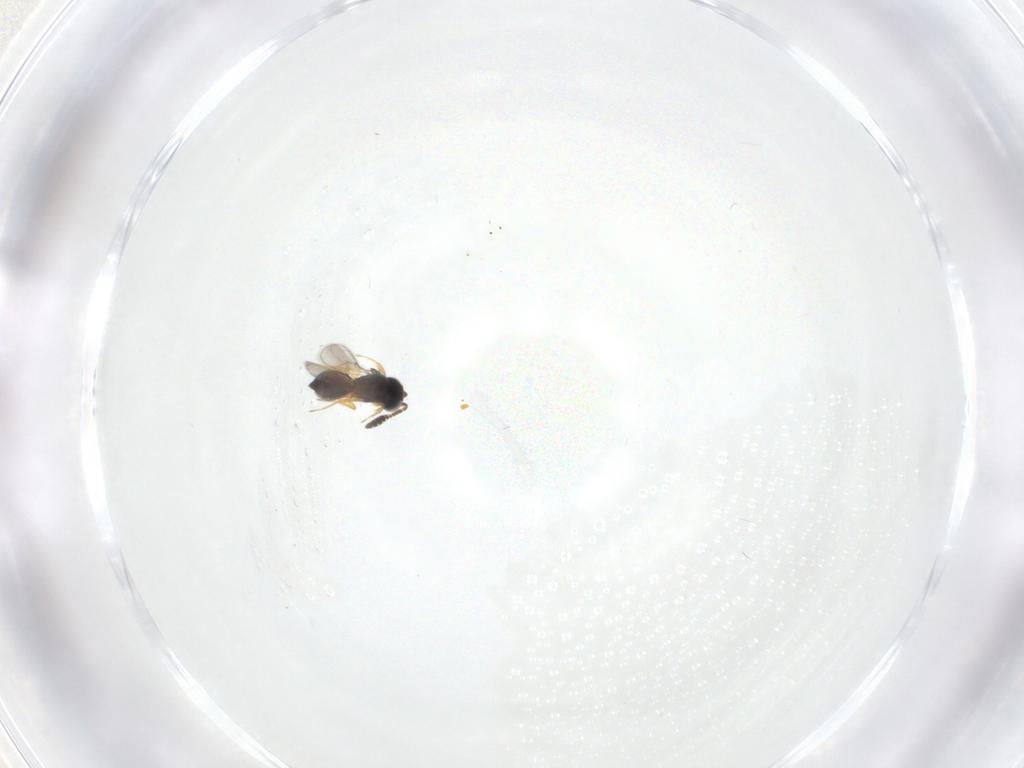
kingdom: Animalia
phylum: Arthropoda
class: Insecta
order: Hymenoptera
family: Scelionidae
